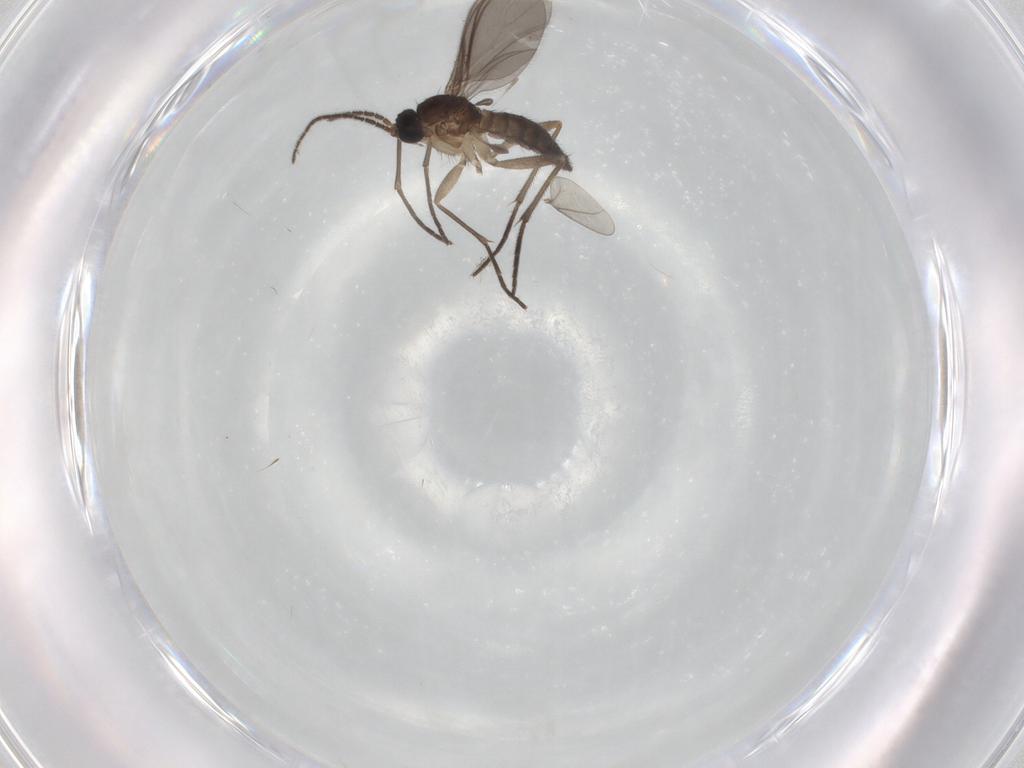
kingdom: Animalia
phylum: Arthropoda
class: Insecta
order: Diptera
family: Sciaridae
